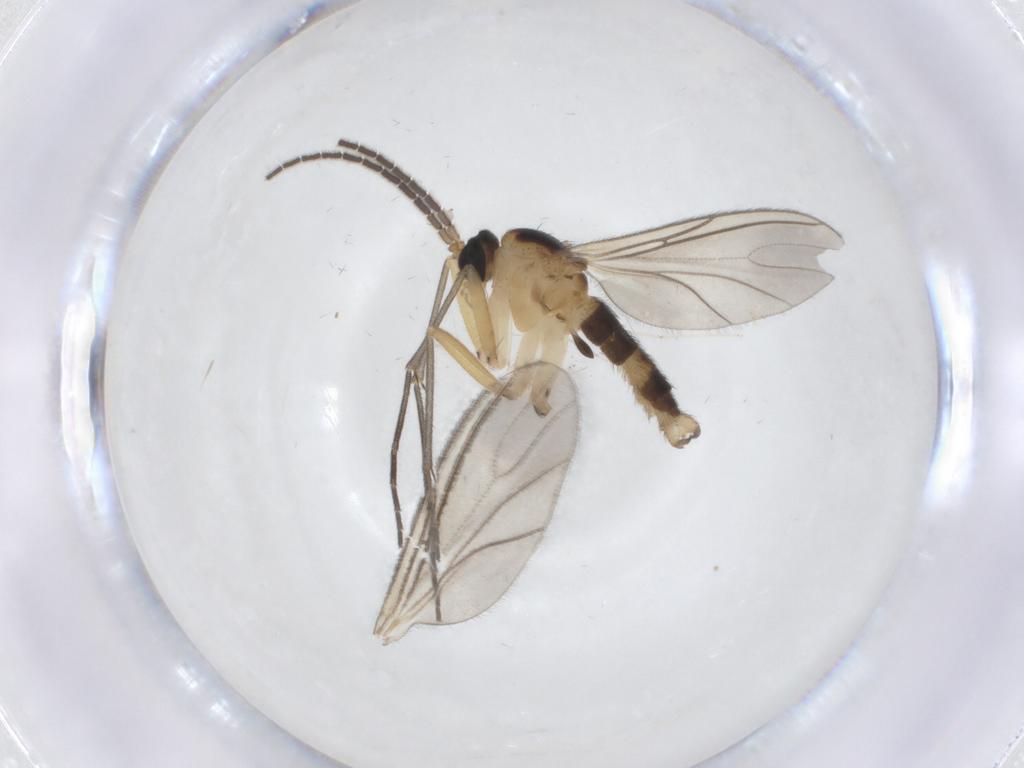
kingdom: Animalia
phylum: Arthropoda
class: Insecta
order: Diptera
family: Sciaridae
